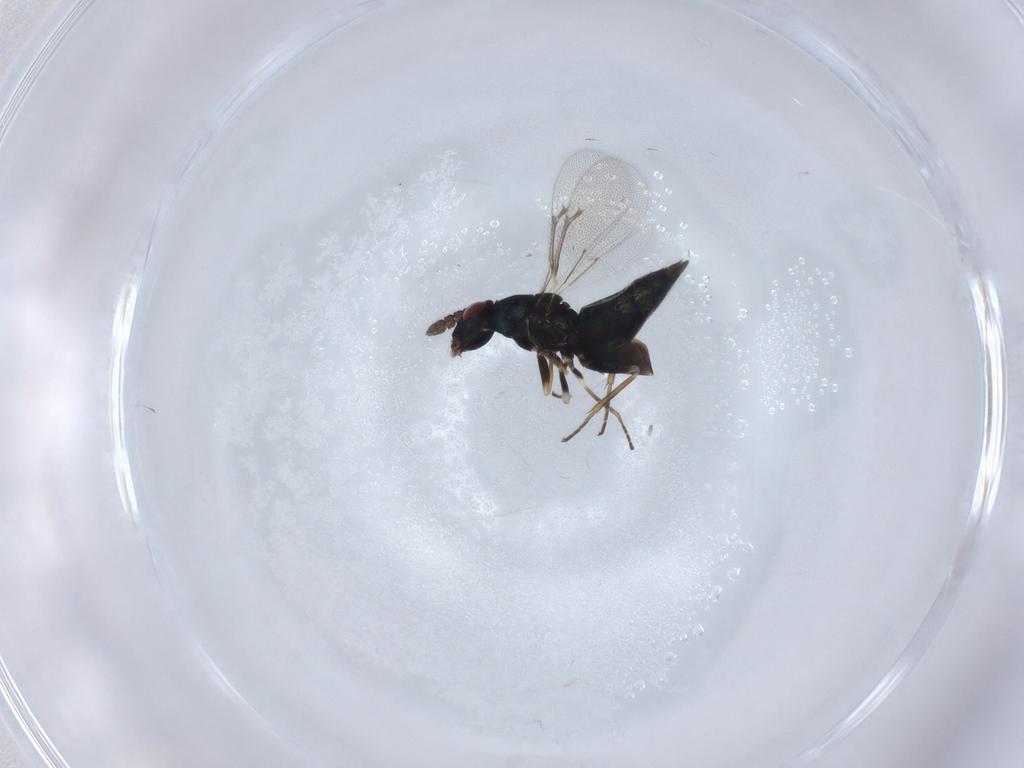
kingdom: Animalia
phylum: Arthropoda
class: Insecta
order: Hymenoptera
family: Eulophidae
